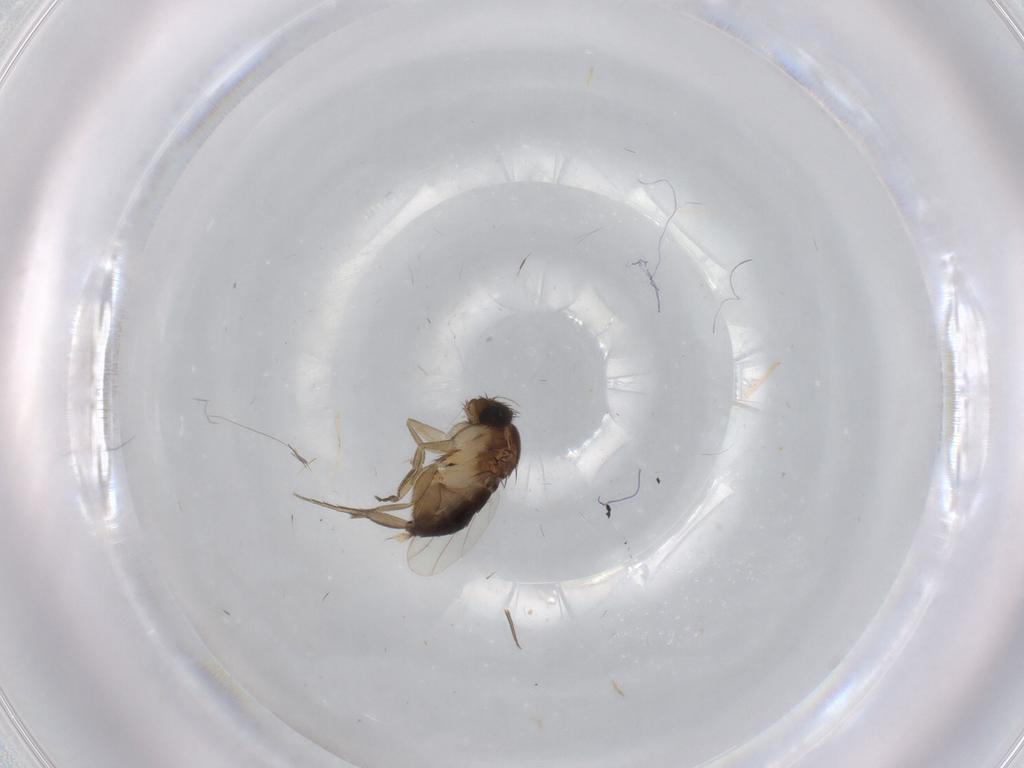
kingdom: Animalia
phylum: Arthropoda
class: Insecta
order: Diptera
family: Phoridae
